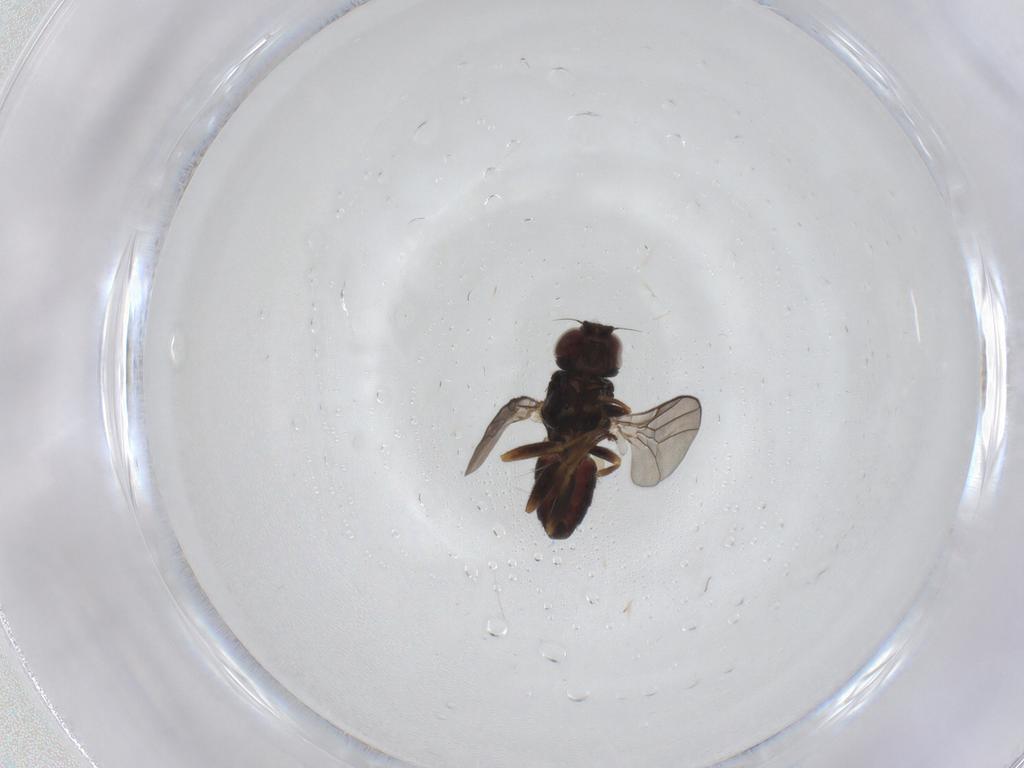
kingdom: Animalia
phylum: Arthropoda
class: Insecta
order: Diptera
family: Chloropidae
